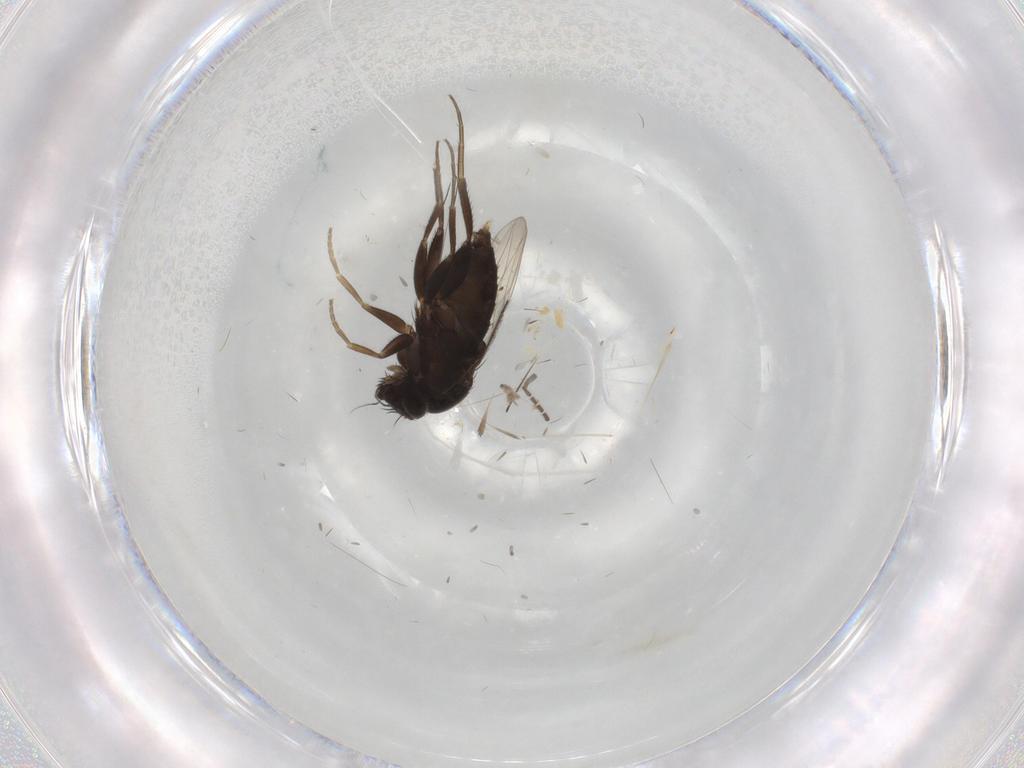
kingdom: Animalia
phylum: Arthropoda
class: Insecta
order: Diptera
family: Phoridae
